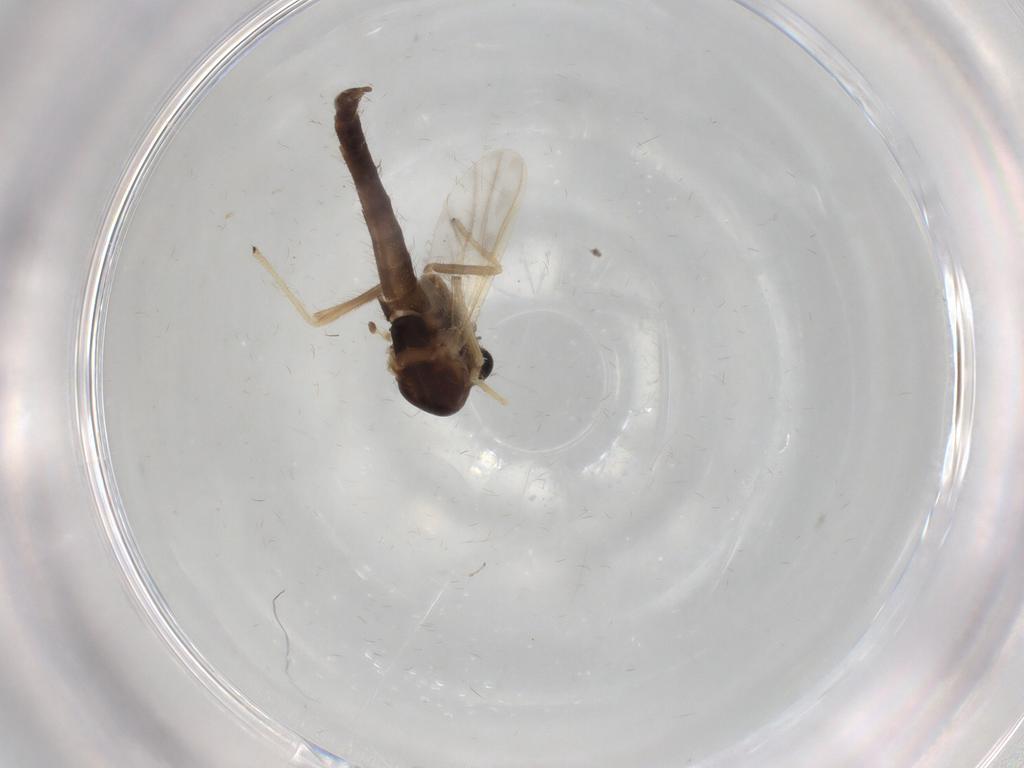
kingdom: Animalia
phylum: Arthropoda
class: Insecta
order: Diptera
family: Chironomidae
